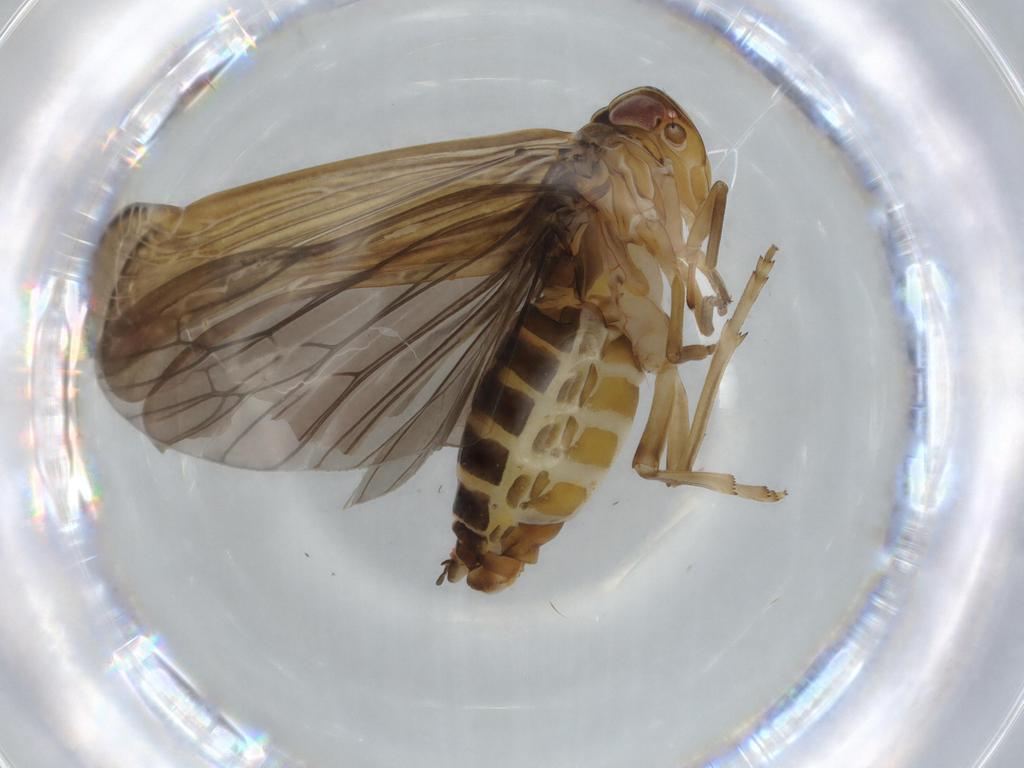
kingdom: Animalia
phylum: Arthropoda
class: Insecta
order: Hemiptera
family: Achilidae
